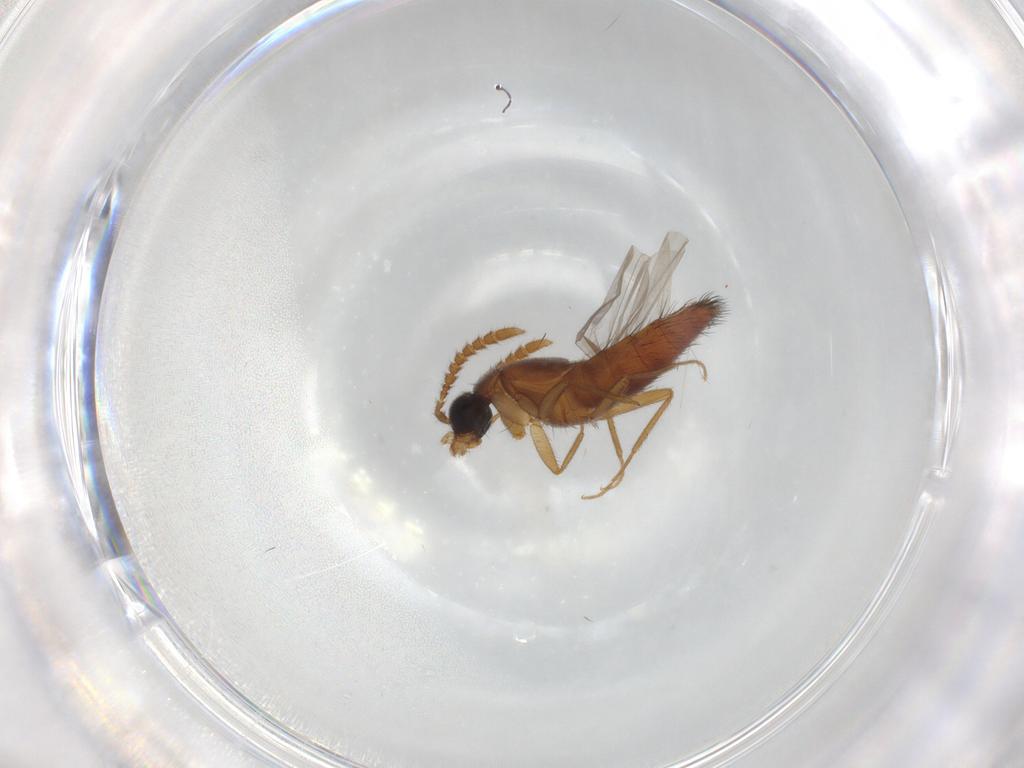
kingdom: Animalia
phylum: Arthropoda
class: Insecta
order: Coleoptera
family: Staphylinidae
